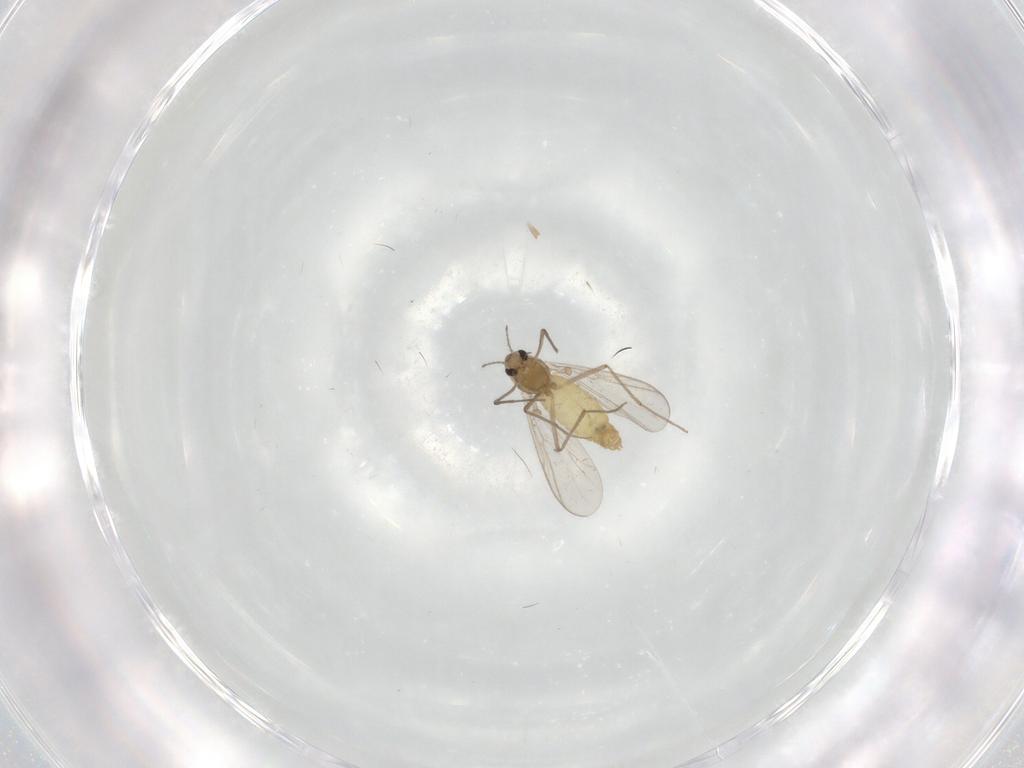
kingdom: Animalia
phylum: Arthropoda
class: Insecta
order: Diptera
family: Chironomidae
